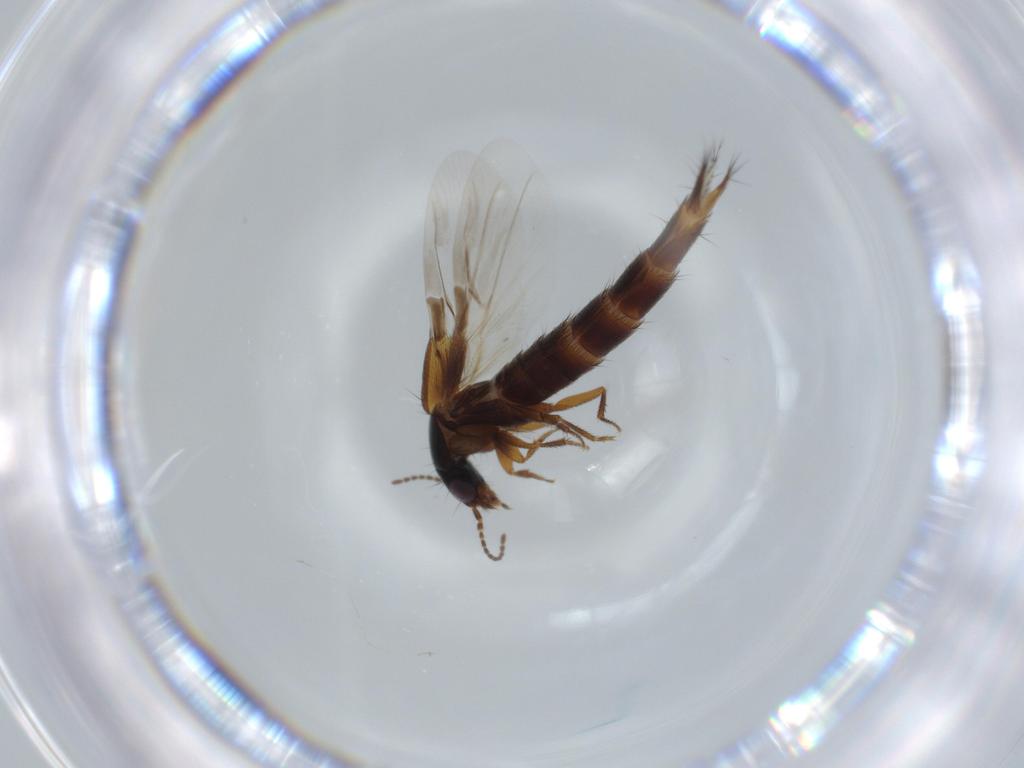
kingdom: Animalia
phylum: Arthropoda
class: Insecta
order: Coleoptera
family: Staphylinidae
